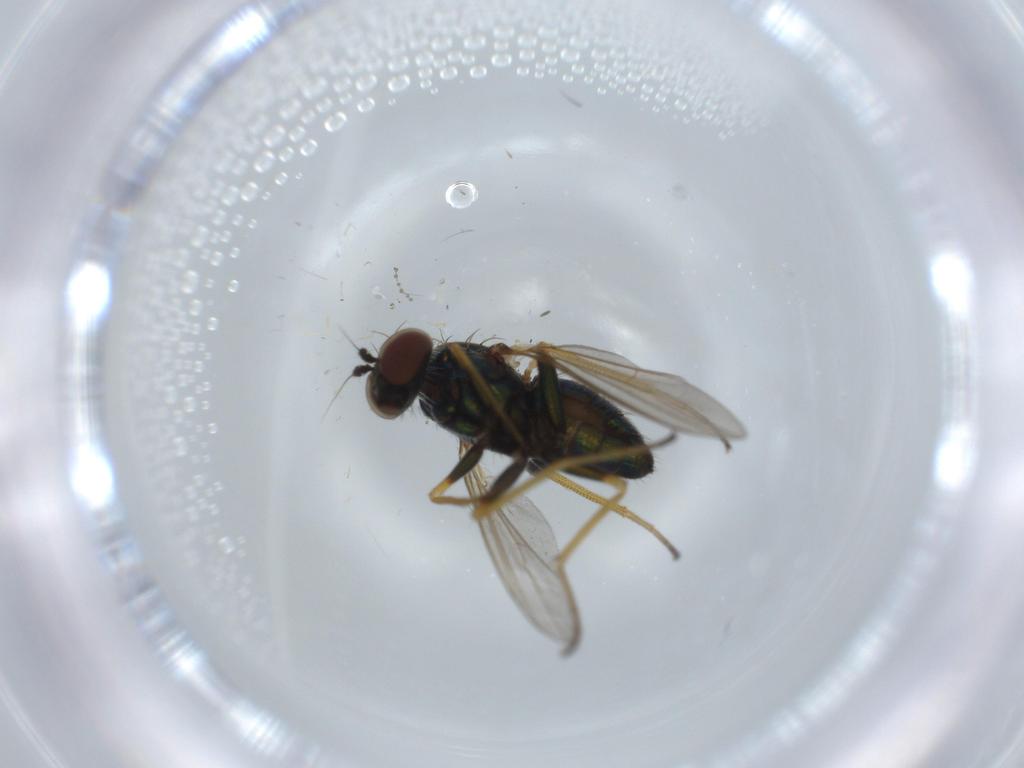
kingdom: Animalia
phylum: Arthropoda
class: Insecta
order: Diptera
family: Dolichopodidae
